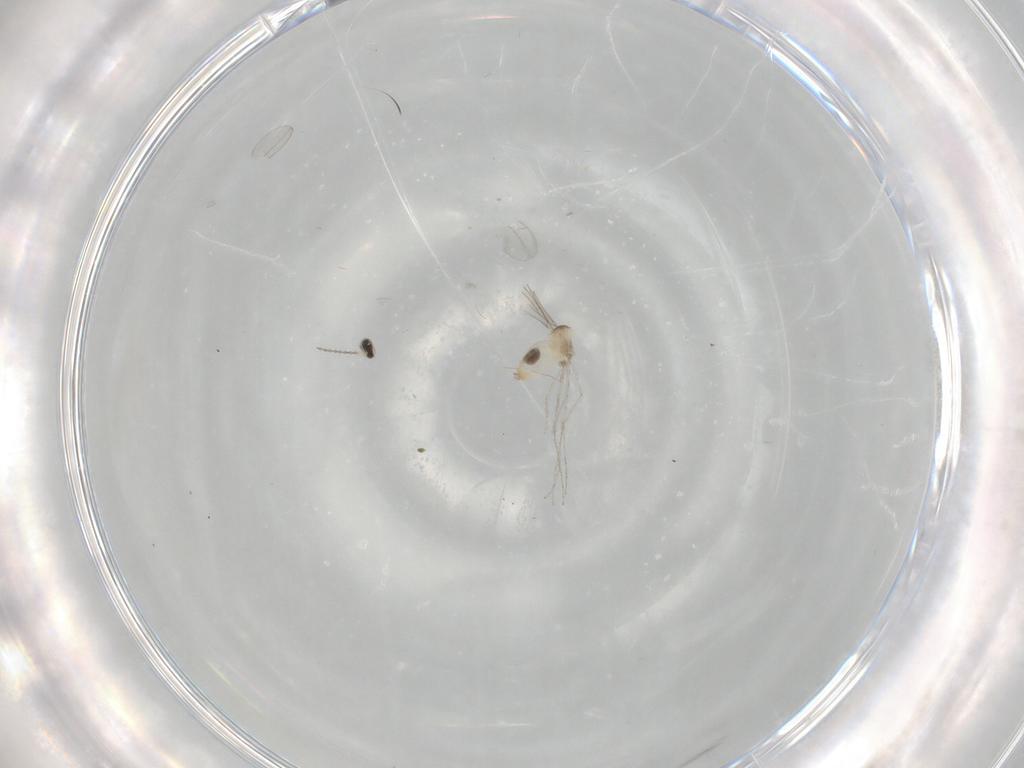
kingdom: Animalia
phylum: Arthropoda
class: Insecta
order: Diptera
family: Cecidomyiidae
